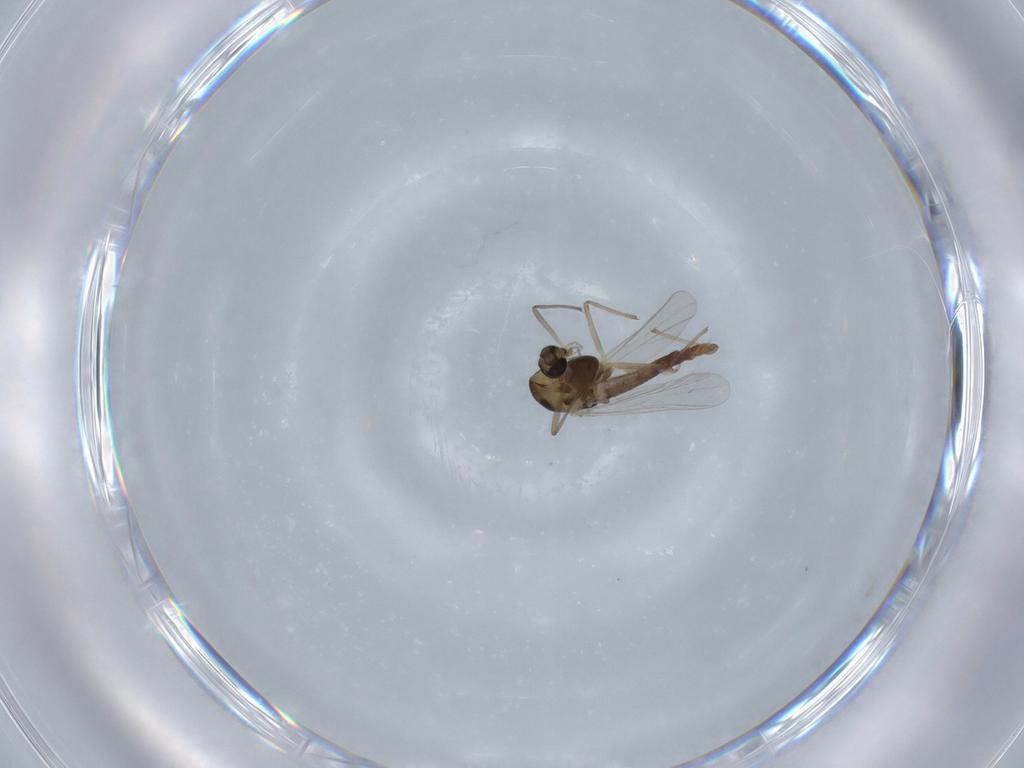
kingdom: Animalia
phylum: Arthropoda
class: Insecta
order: Diptera
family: Chironomidae
